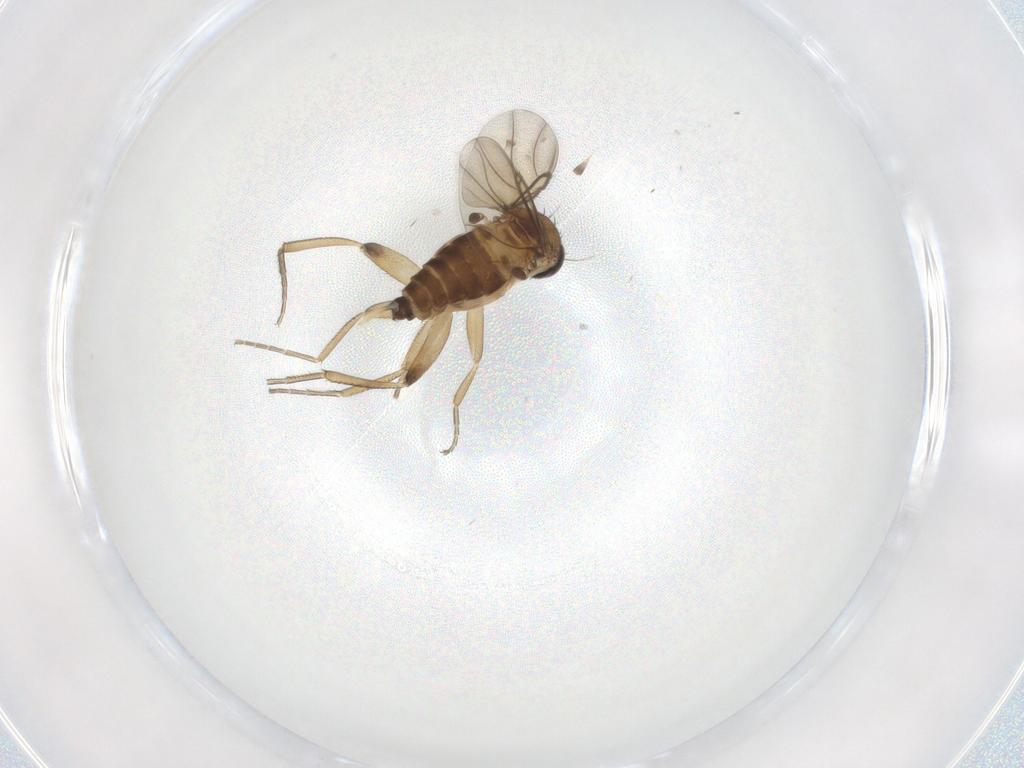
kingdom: Animalia
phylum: Arthropoda
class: Insecta
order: Diptera
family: Phoridae
